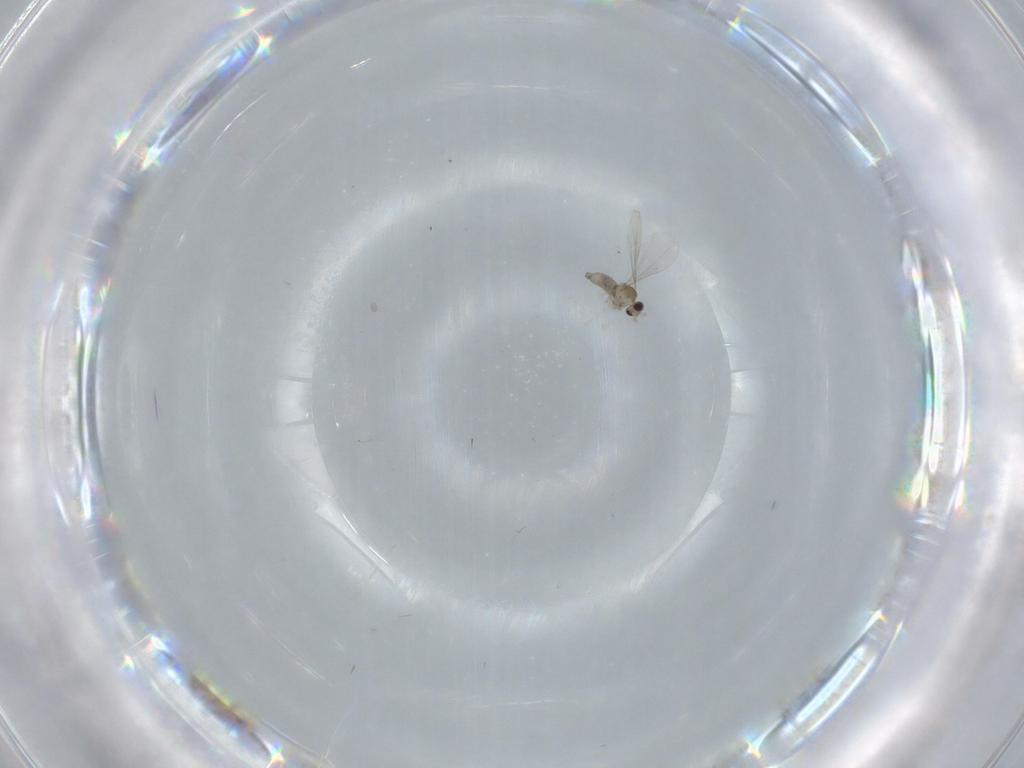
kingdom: Animalia
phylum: Arthropoda
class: Insecta
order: Diptera
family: Cecidomyiidae
